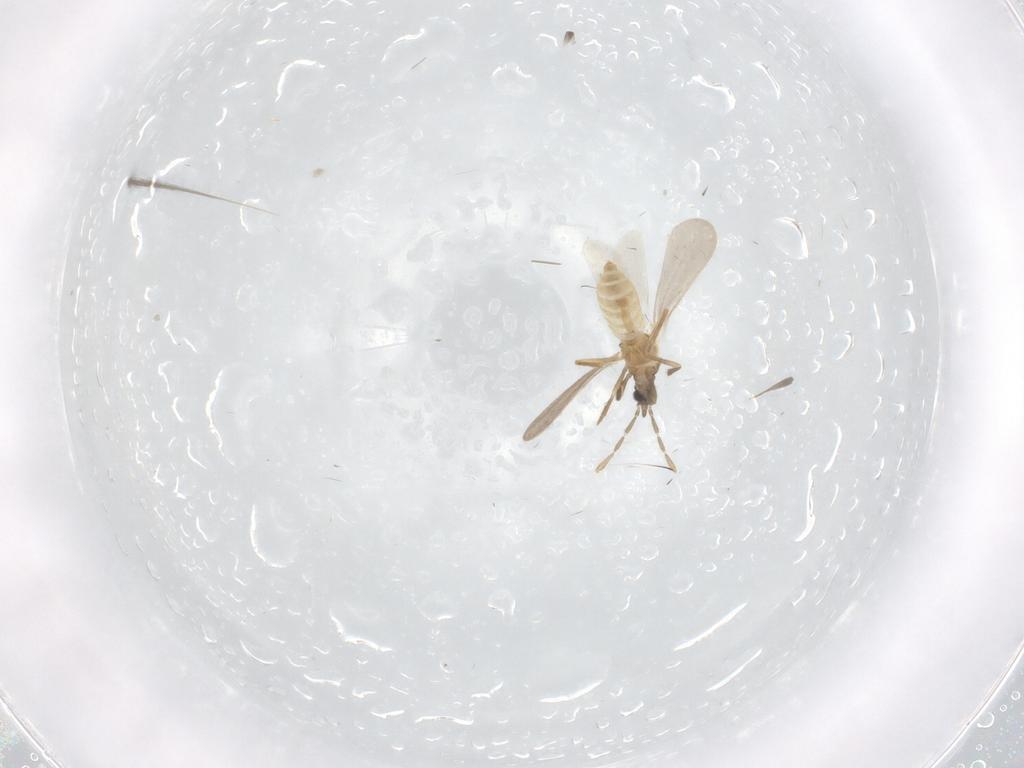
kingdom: Animalia
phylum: Arthropoda
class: Insecta
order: Hemiptera
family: Aleyrodidae
